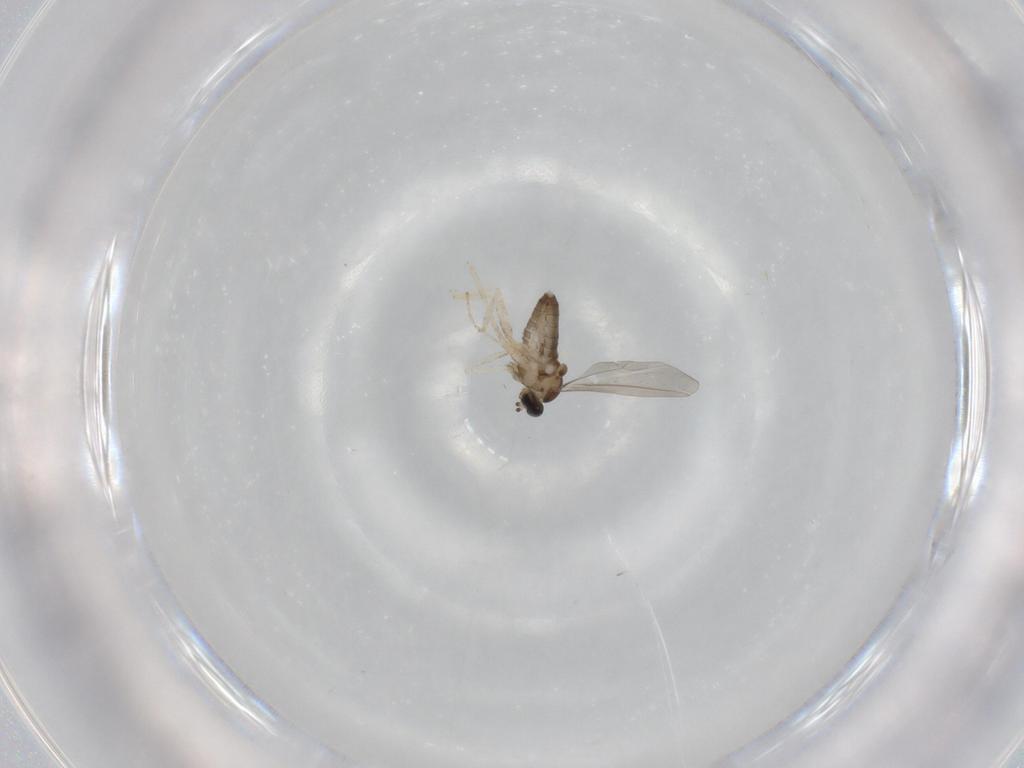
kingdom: Animalia
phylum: Arthropoda
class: Insecta
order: Diptera
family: Cecidomyiidae
